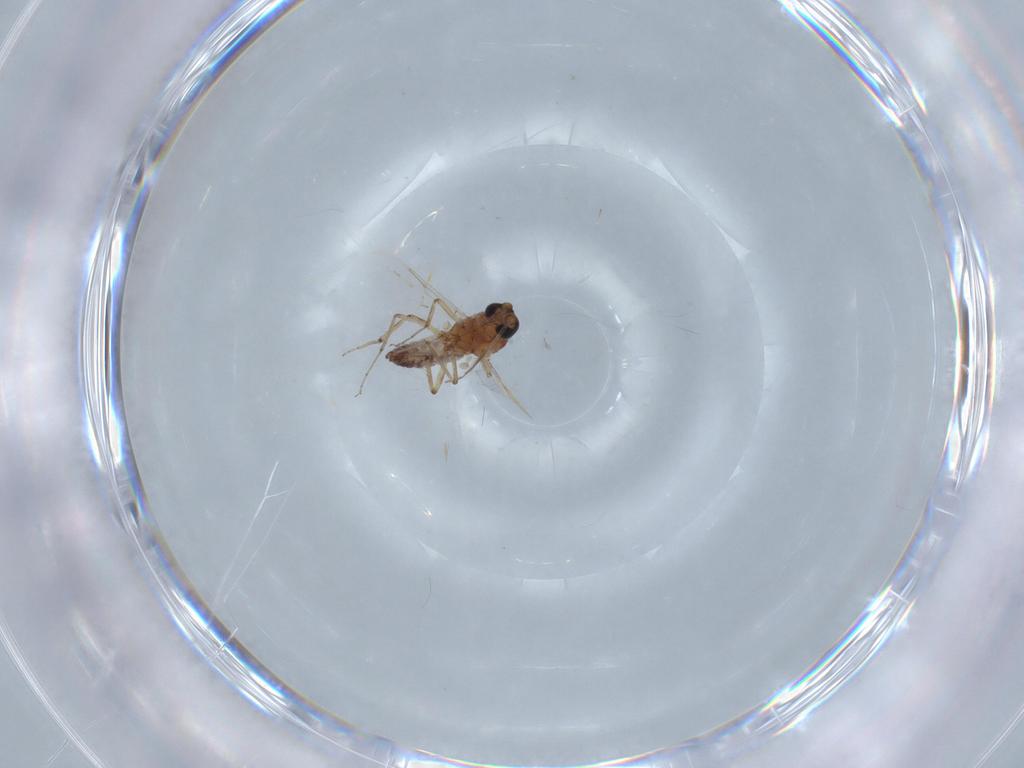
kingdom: Animalia
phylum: Arthropoda
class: Insecta
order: Diptera
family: Ceratopogonidae
